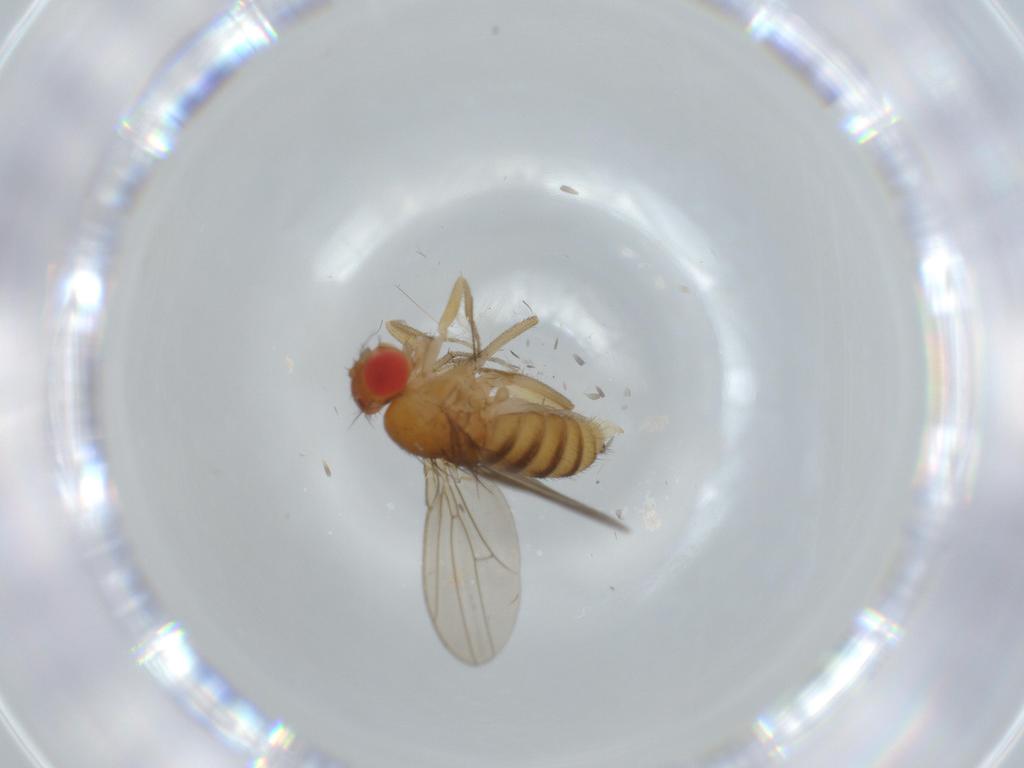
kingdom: Animalia
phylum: Arthropoda
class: Insecta
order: Diptera
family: Drosophilidae
